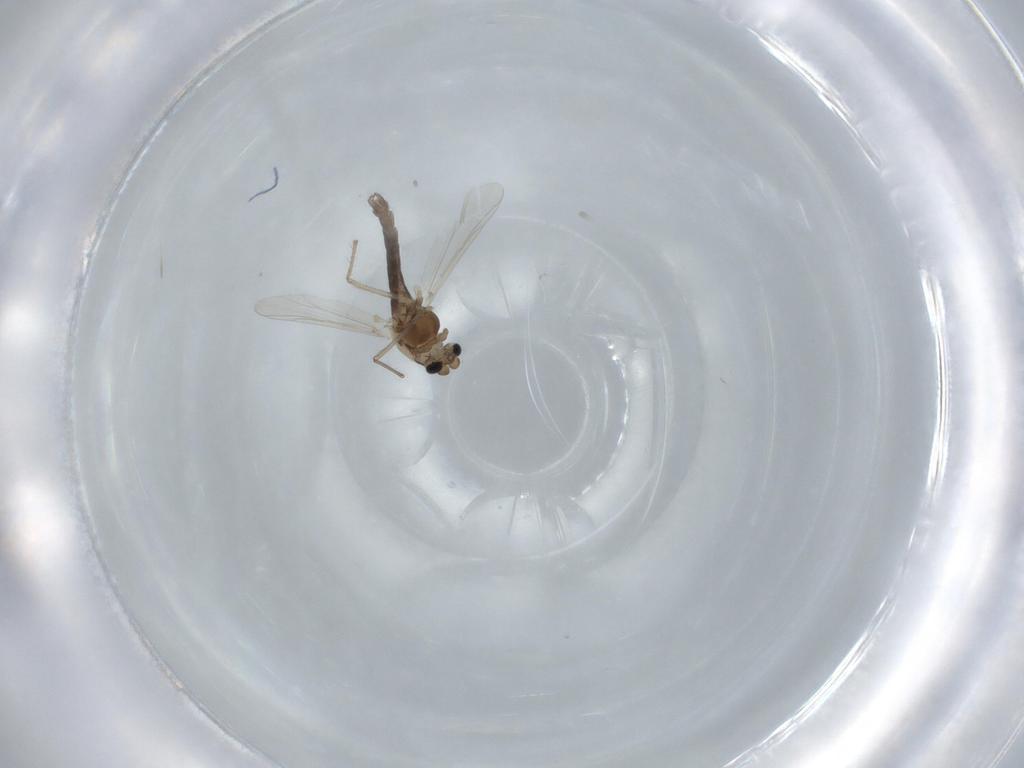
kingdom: Animalia
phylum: Arthropoda
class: Insecta
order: Diptera
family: Chironomidae
